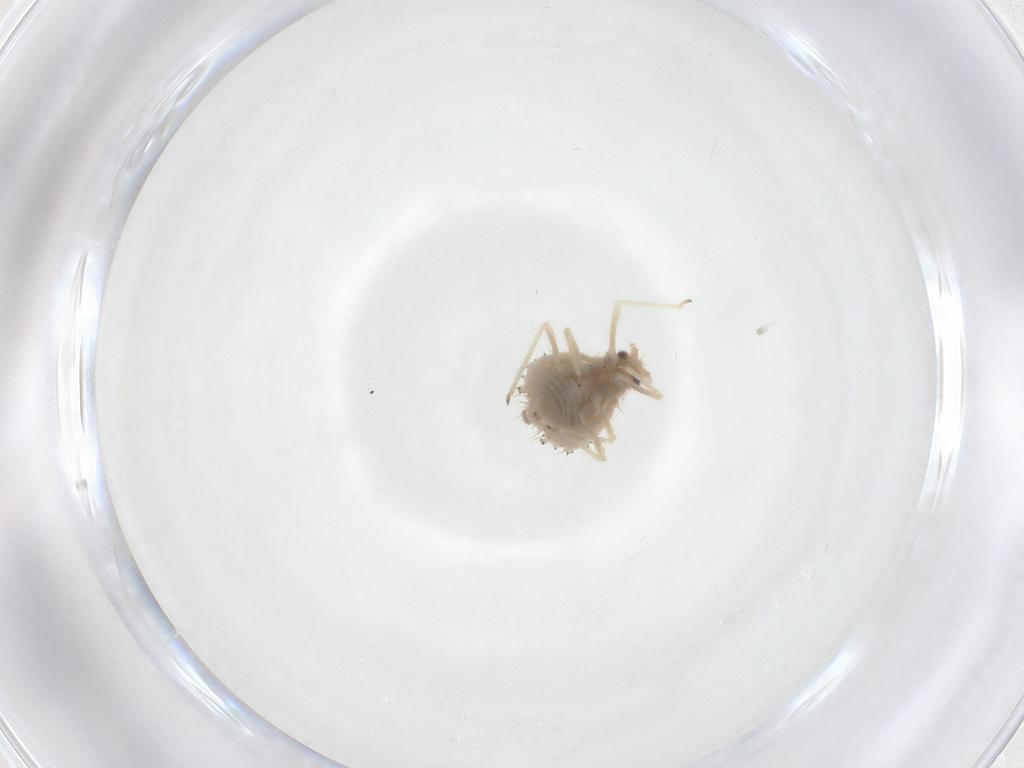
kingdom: Animalia
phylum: Arthropoda
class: Insecta
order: Hemiptera
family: Aphididae
